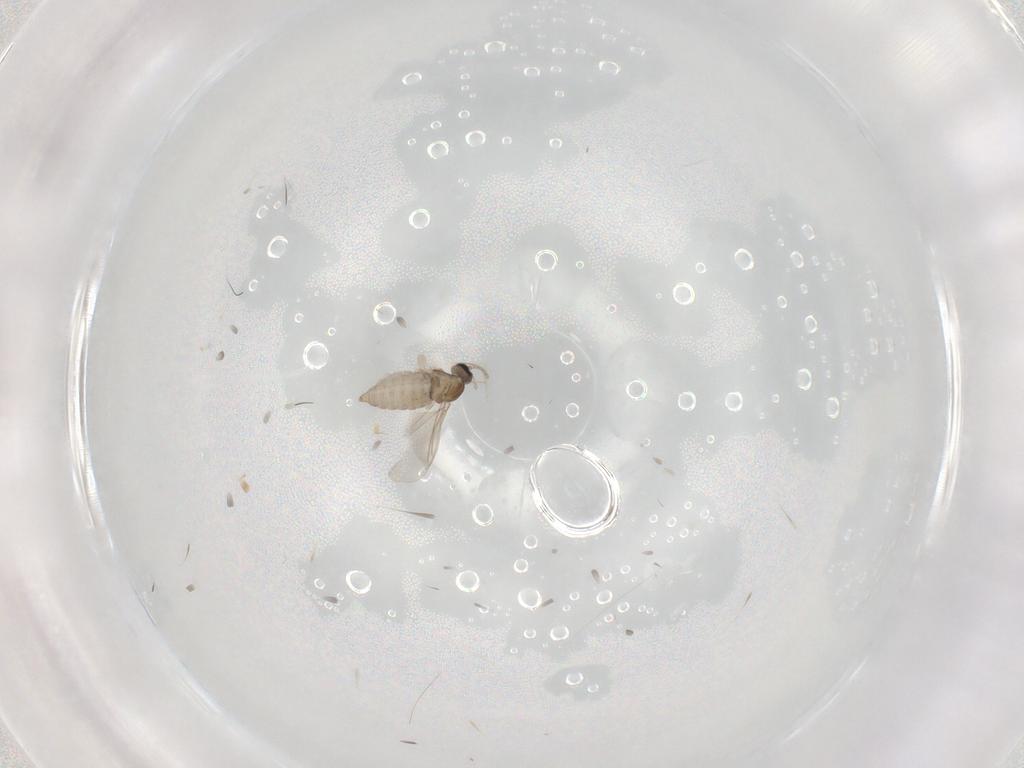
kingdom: Animalia
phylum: Arthropoda
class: Insecta
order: Diptera
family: Cecidomyiidae
